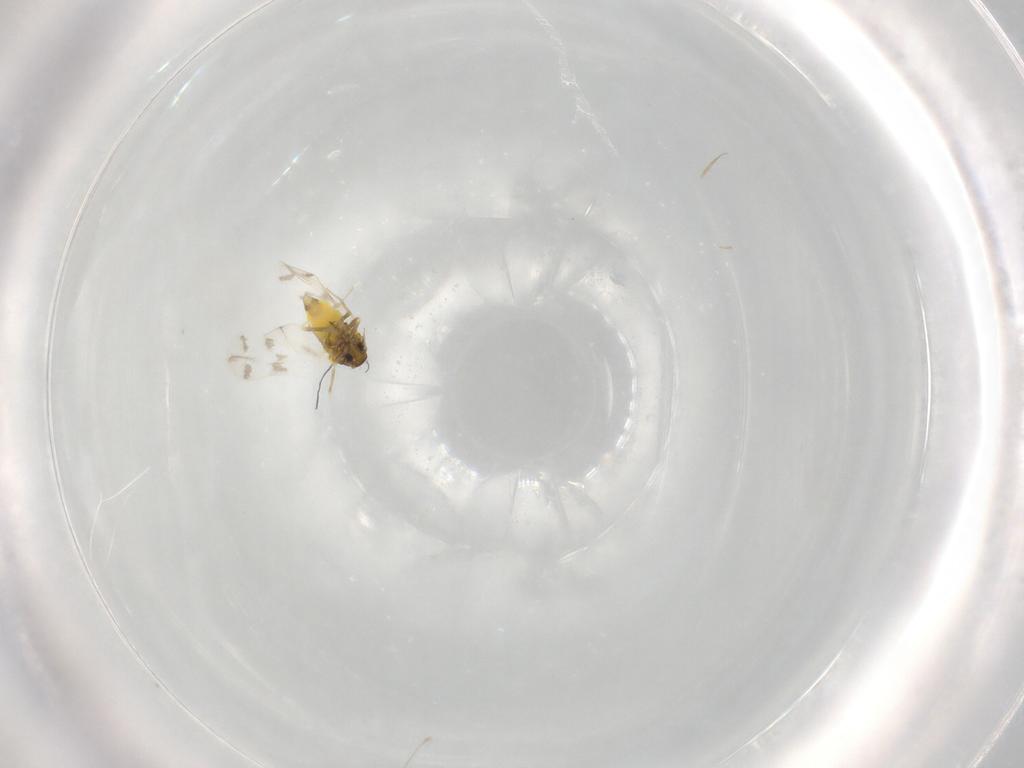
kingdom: Animalia
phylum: Arthropoda
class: Insecta
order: Hemiptera
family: Aleyrodidae
